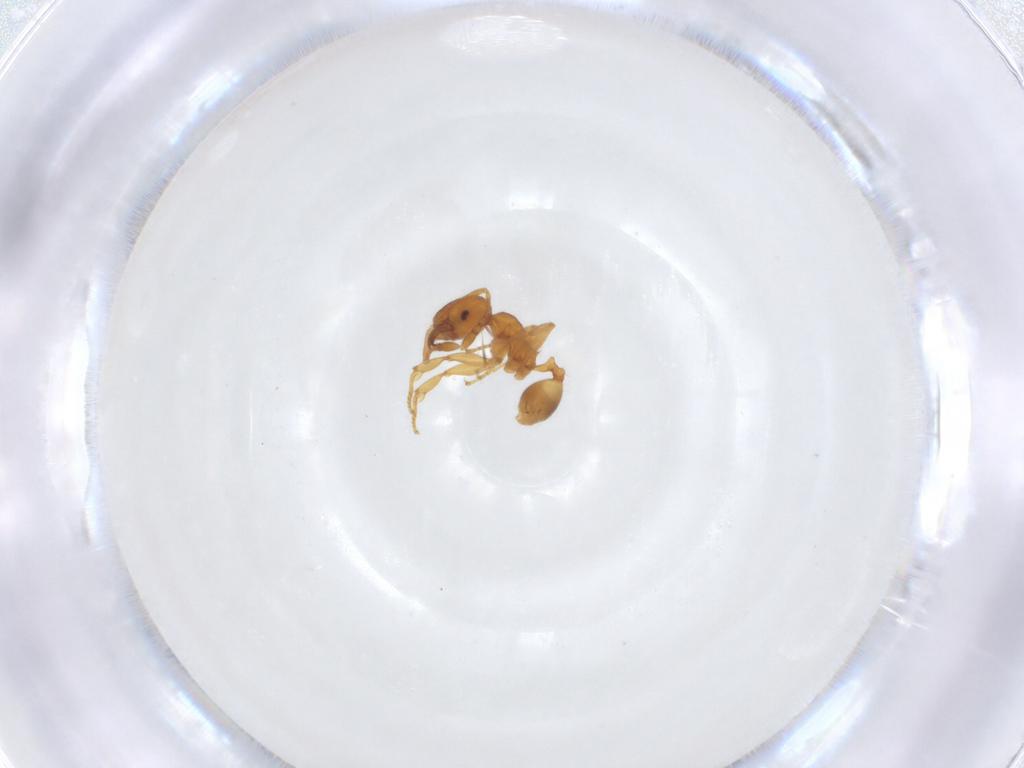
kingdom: Animalia
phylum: Arthropoda
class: Insecta
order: Hymenoptera
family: Formicidae
